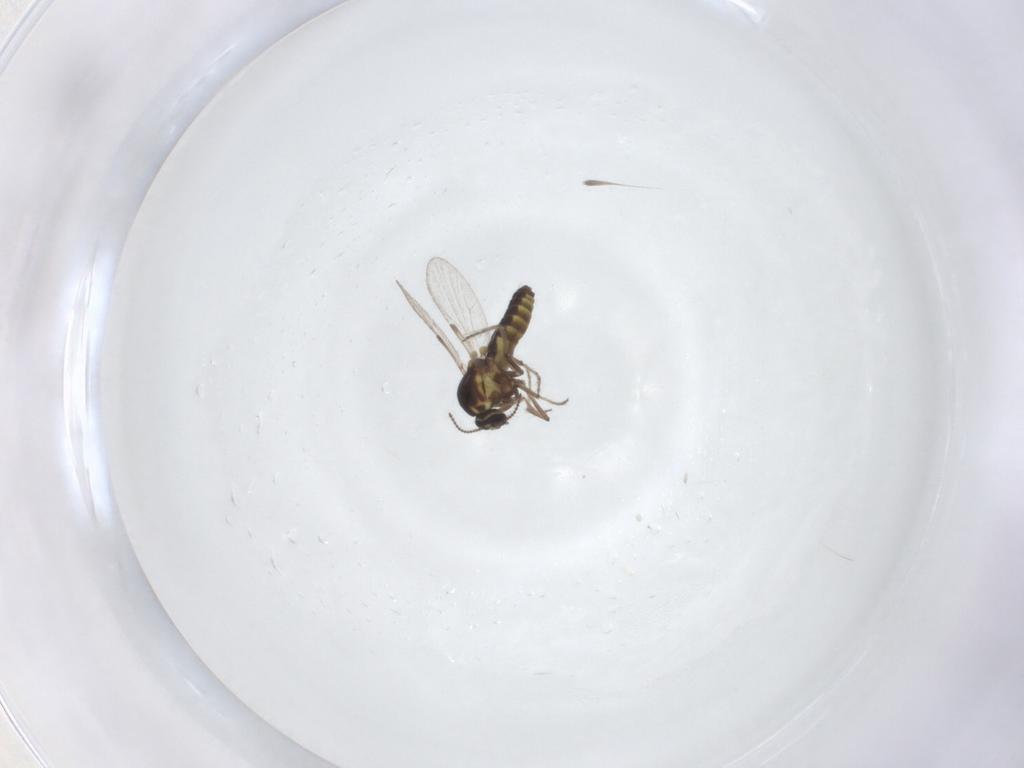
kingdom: Animalia
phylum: Arthropoda
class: Insecta
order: Diptera
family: Ceratopogonidae
